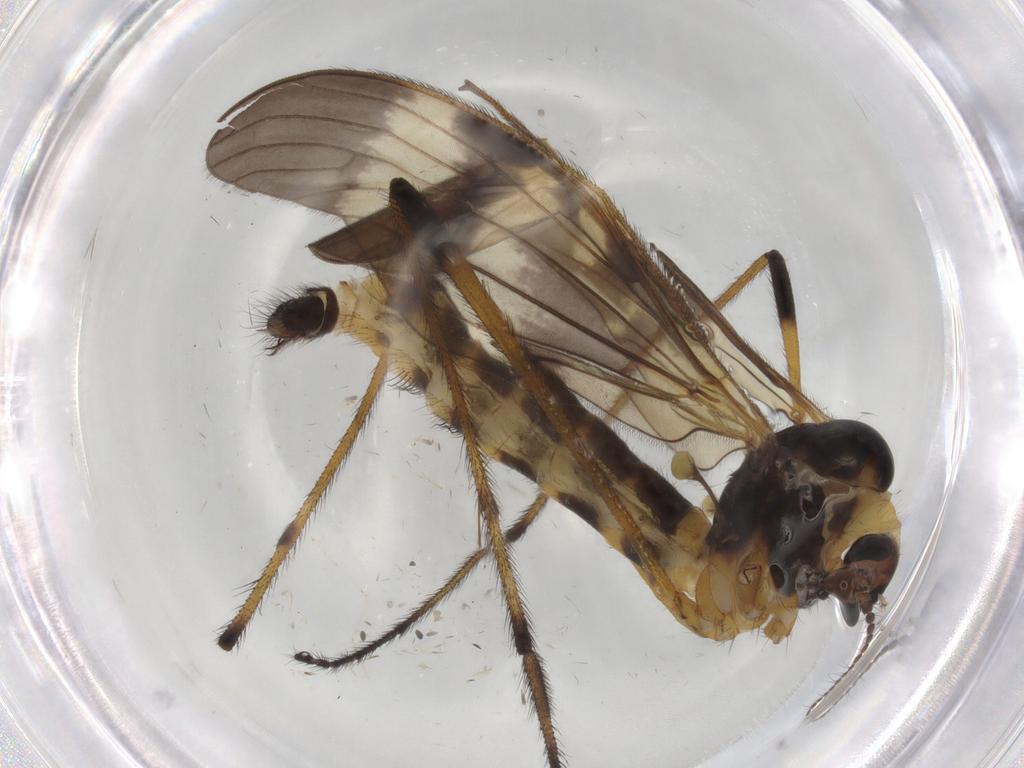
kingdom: Animalia
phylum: Arthropoda
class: Insecta
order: Diptera
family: Ceratopogonidae
